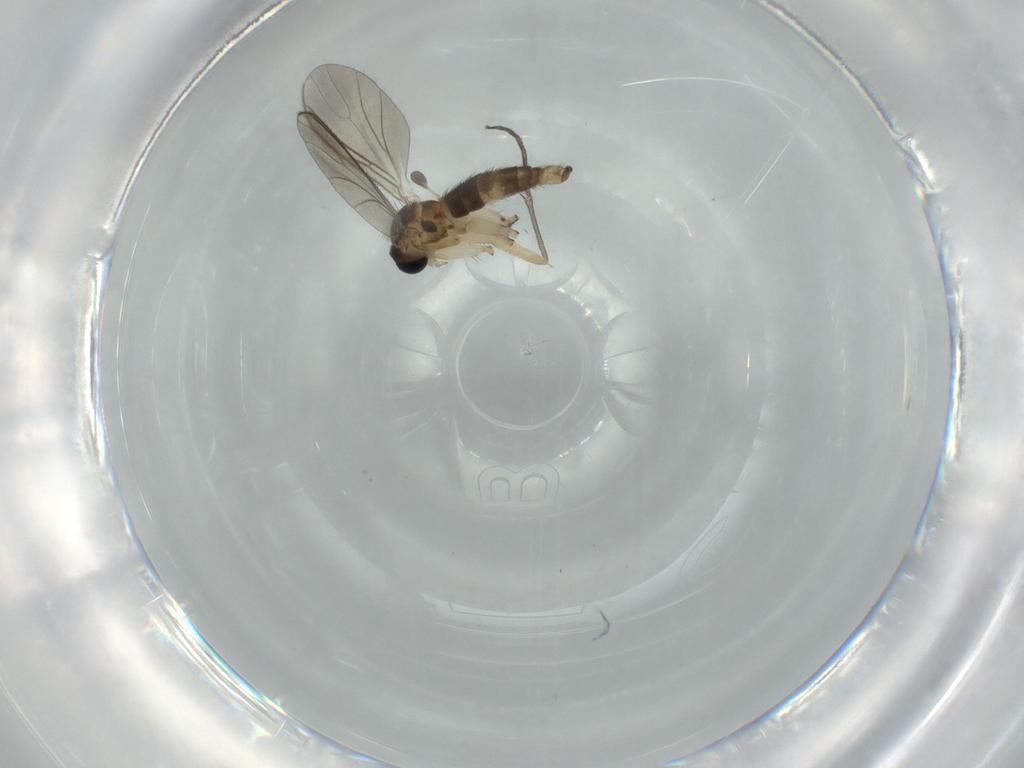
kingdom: Animalia
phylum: Arthropoda
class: Insecta
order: Diptera
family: Sciaridae
